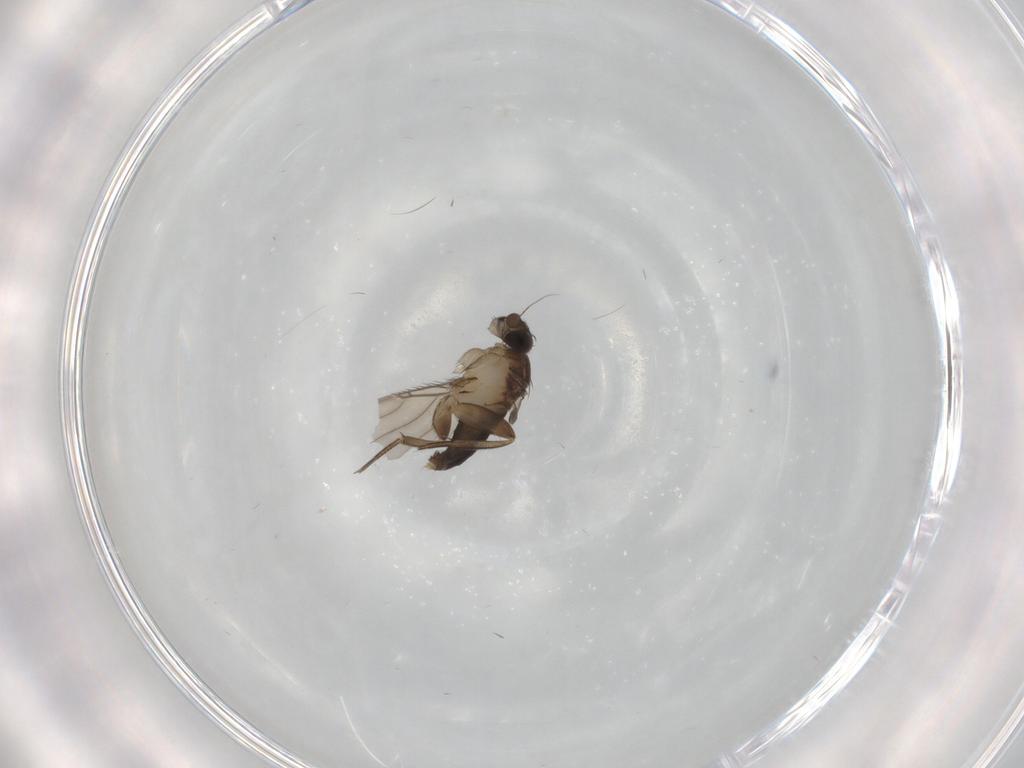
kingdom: Animalia
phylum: Arthropoda
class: Insecta
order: Diptera
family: Phoridae
